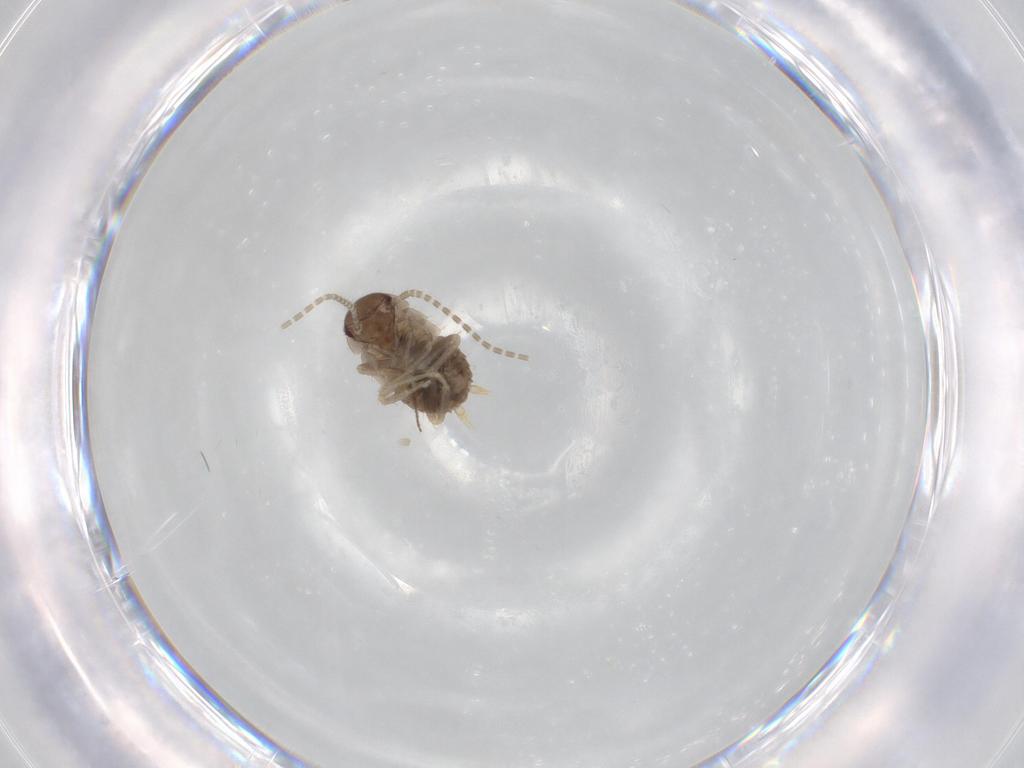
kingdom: Animalia
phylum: Arthropoda
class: Insecta
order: Blattodea
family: Ectobiidae
